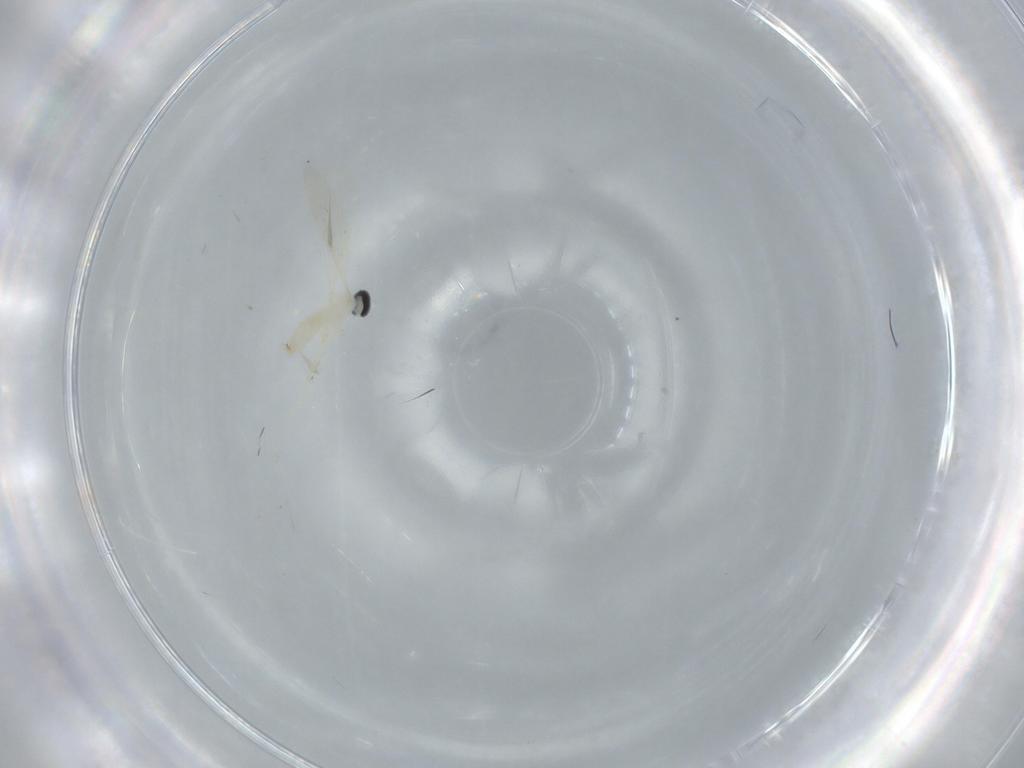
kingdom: Animalia
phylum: Arthropoda
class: Insecta
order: Diptera
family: Cecidomyiidae
